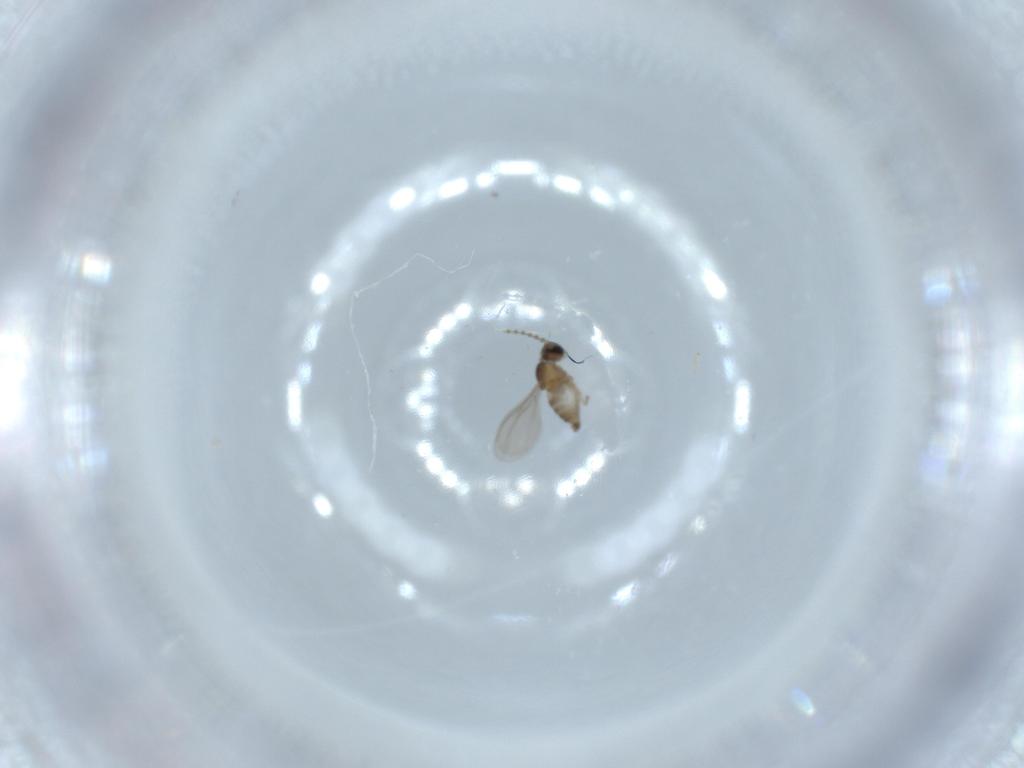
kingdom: Animalia
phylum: Arthropoda
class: Insecta
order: Diptera
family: Cecidomyiidae
